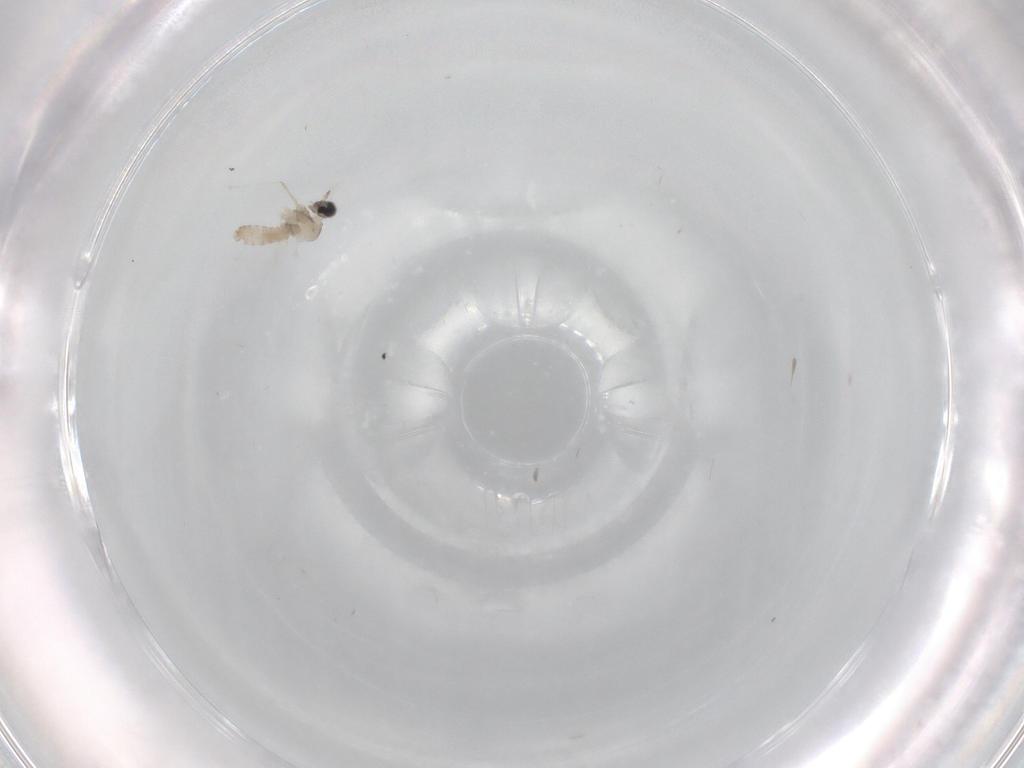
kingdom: Animalia
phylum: Arthropoda
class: Insecta
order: Diptera
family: Cecidomyiidae
